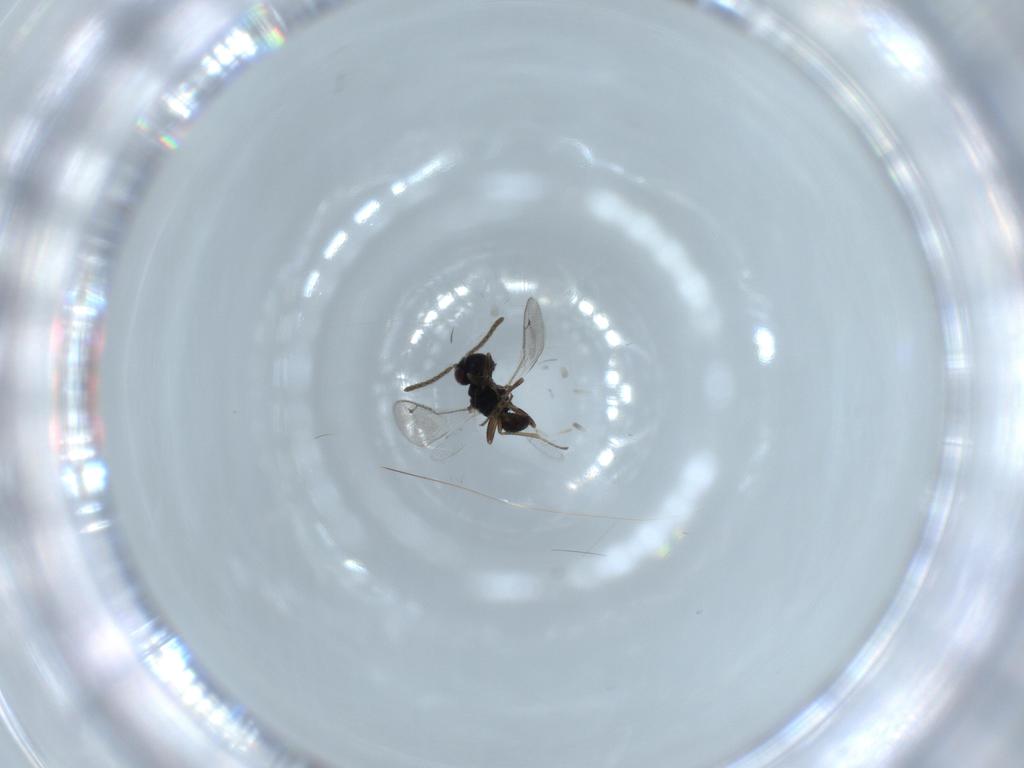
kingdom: Animalia
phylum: Arthropoda
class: Insecta
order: Hymenoptera
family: Pteromalidae
